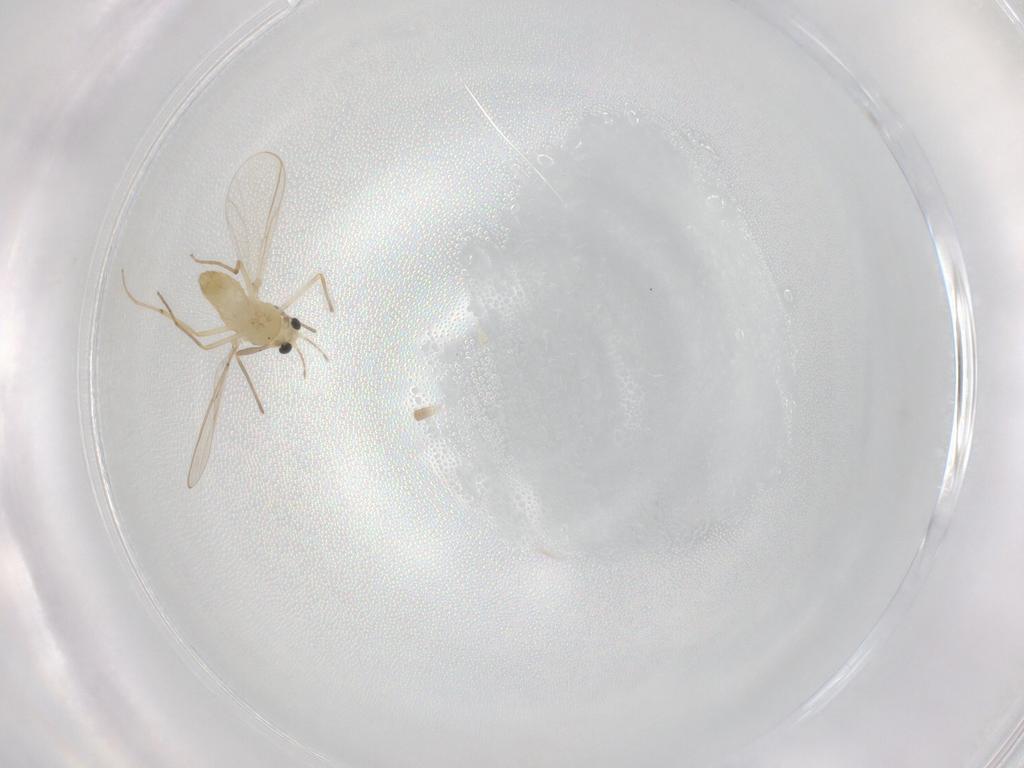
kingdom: Animalia
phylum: Arthropoda
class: Insecta
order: Diptera
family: Chironomidae
